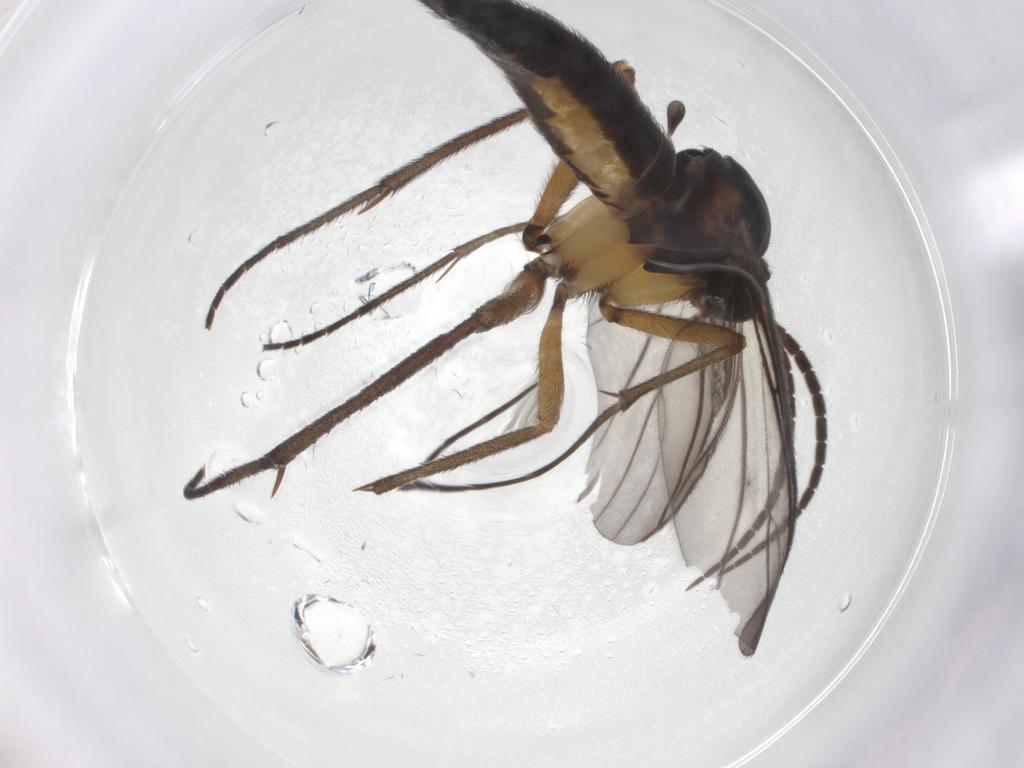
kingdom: Animalia
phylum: Arthropoda
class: Insecta
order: Diptera
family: Sciaridae
